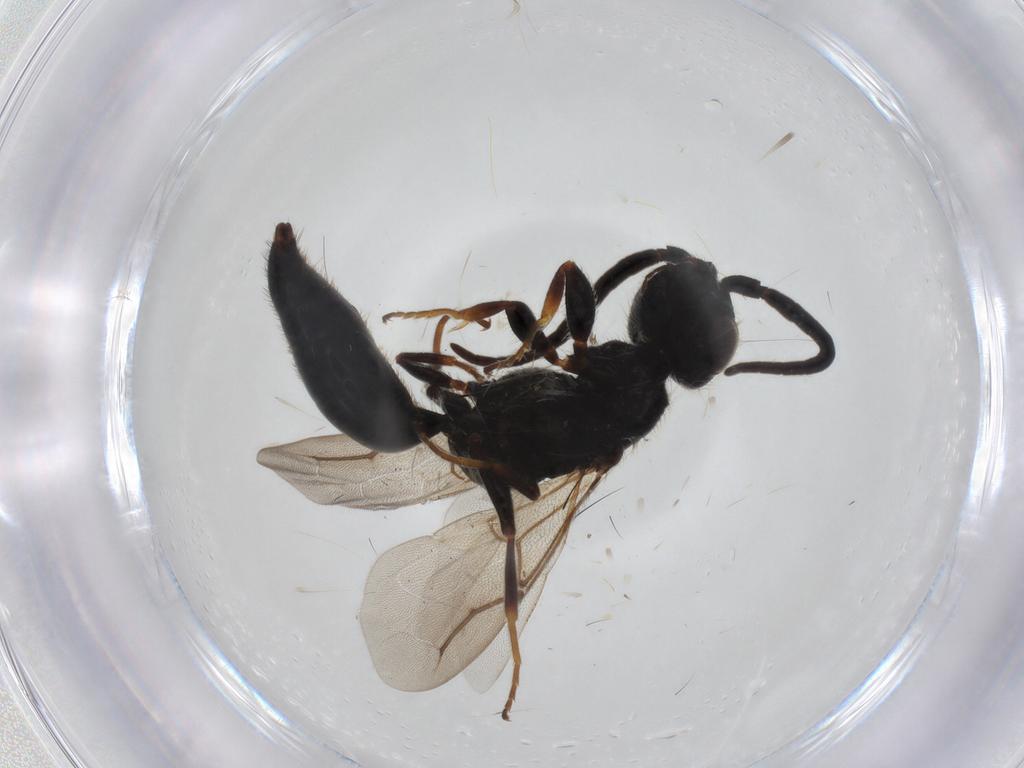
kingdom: Animalia
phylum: Arthropoda
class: Insecta
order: Hymenoptera
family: Bethylidae
